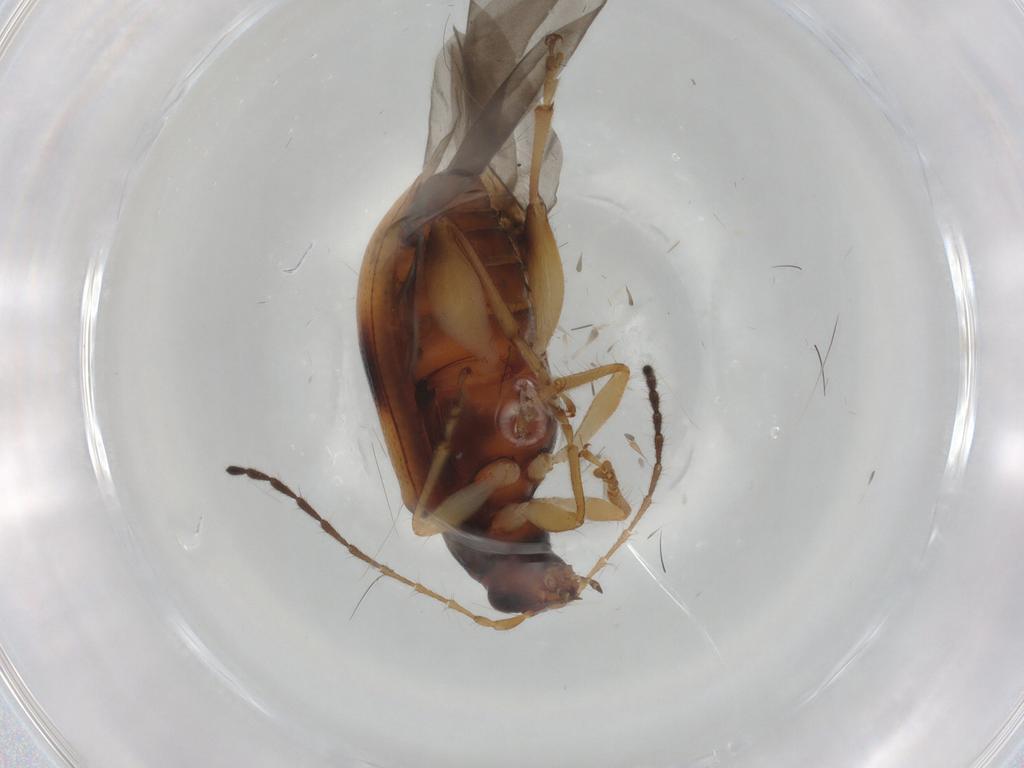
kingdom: Animalia
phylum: Arthropoda
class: Insecta
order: Coleoptera
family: Chrysomelidae
